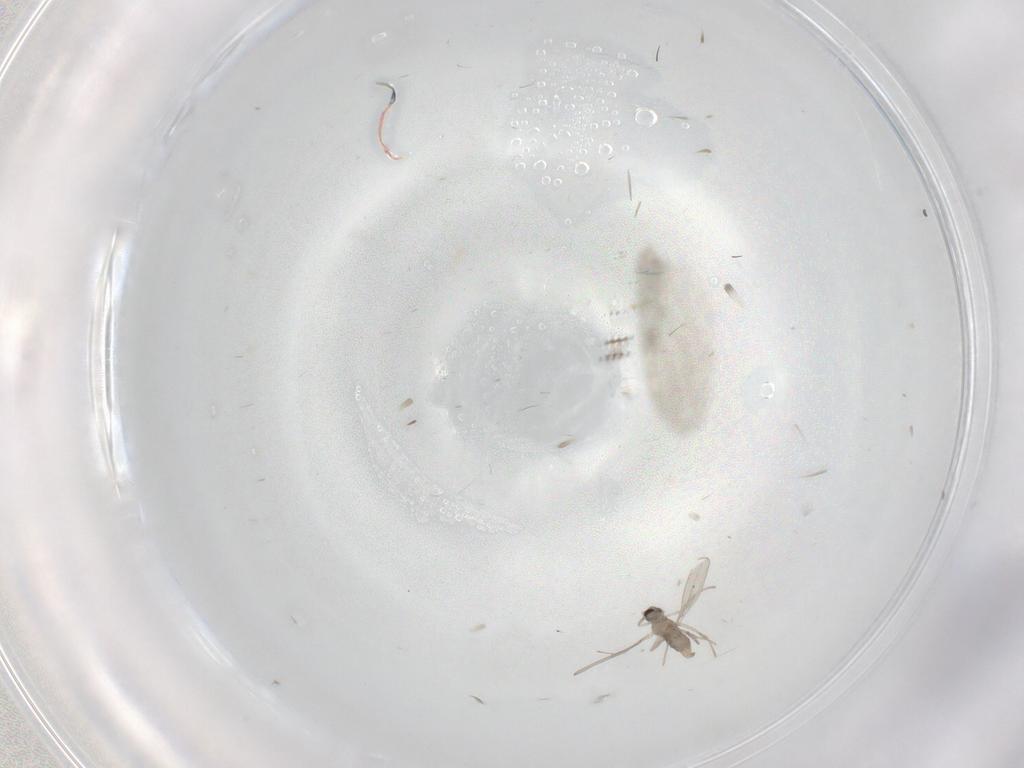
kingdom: Animalia
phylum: Arthropoda
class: Insecta
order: Diptera
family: Cecidomyiidae
